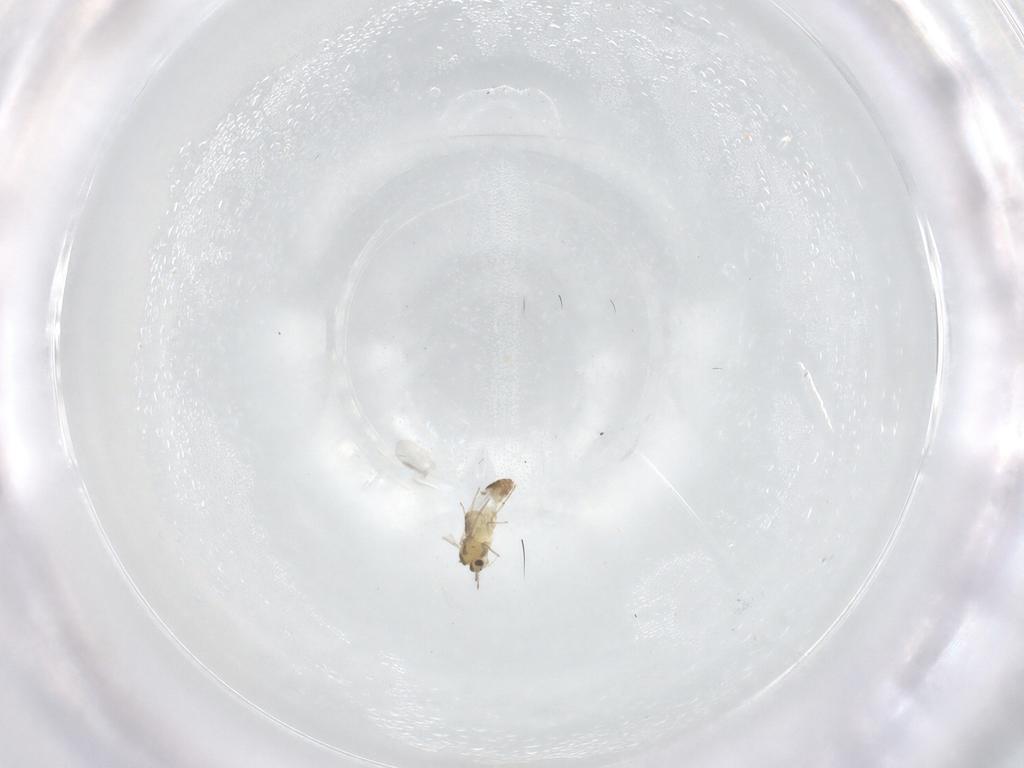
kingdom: Animalia
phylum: Arthropoda
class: Insecta
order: Diptera
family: Chironomidae
